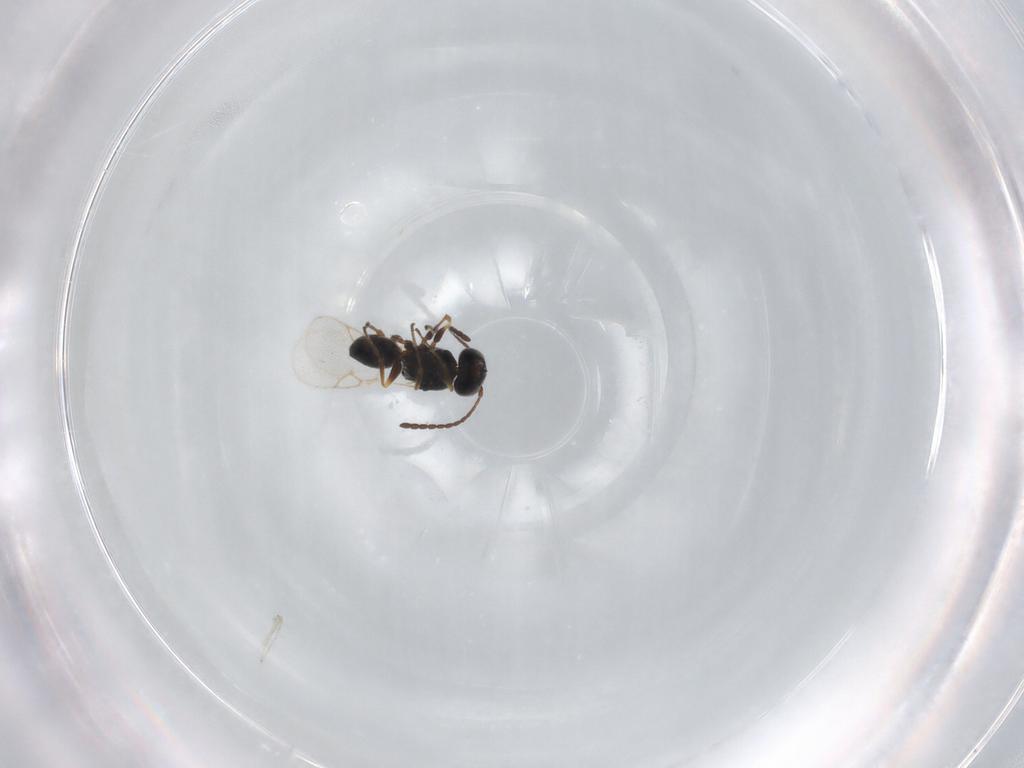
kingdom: Animalia
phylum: Arthropoda
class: Insecta
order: Hymenoptera
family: Figitidae
